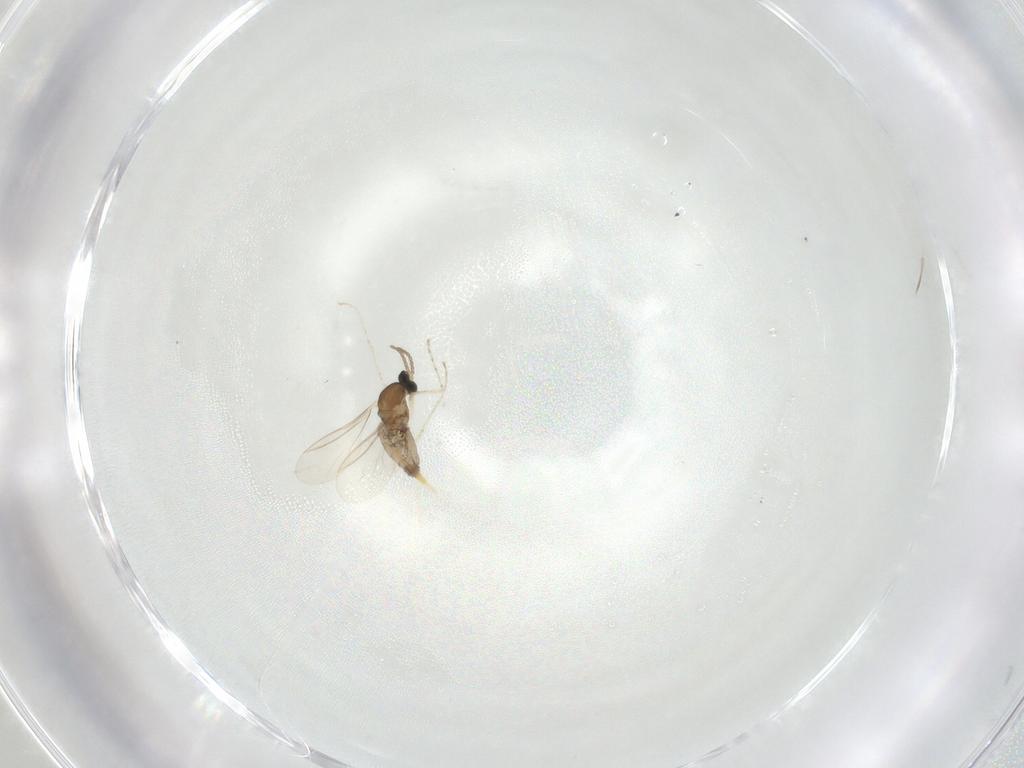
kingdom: Animalia
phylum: Arthropoda
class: Insecta
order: Diptera
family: Cecidomyiidae
